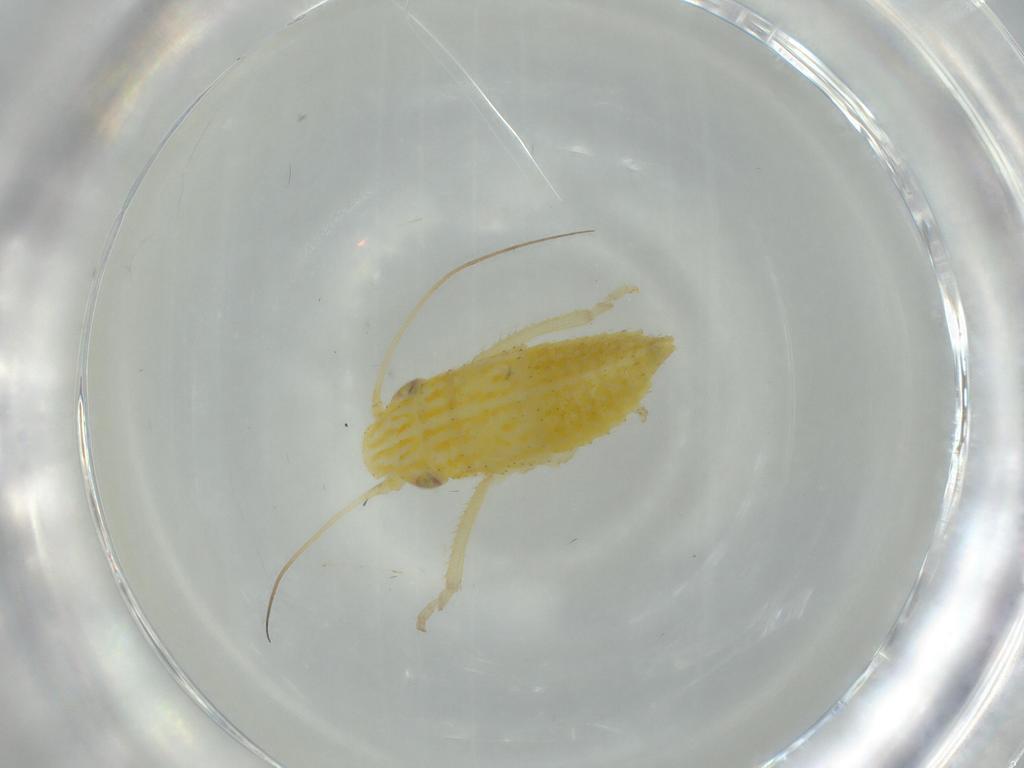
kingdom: Animalia
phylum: Arthropoda
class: Insecta
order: Hemiptera
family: Cicadellidae
